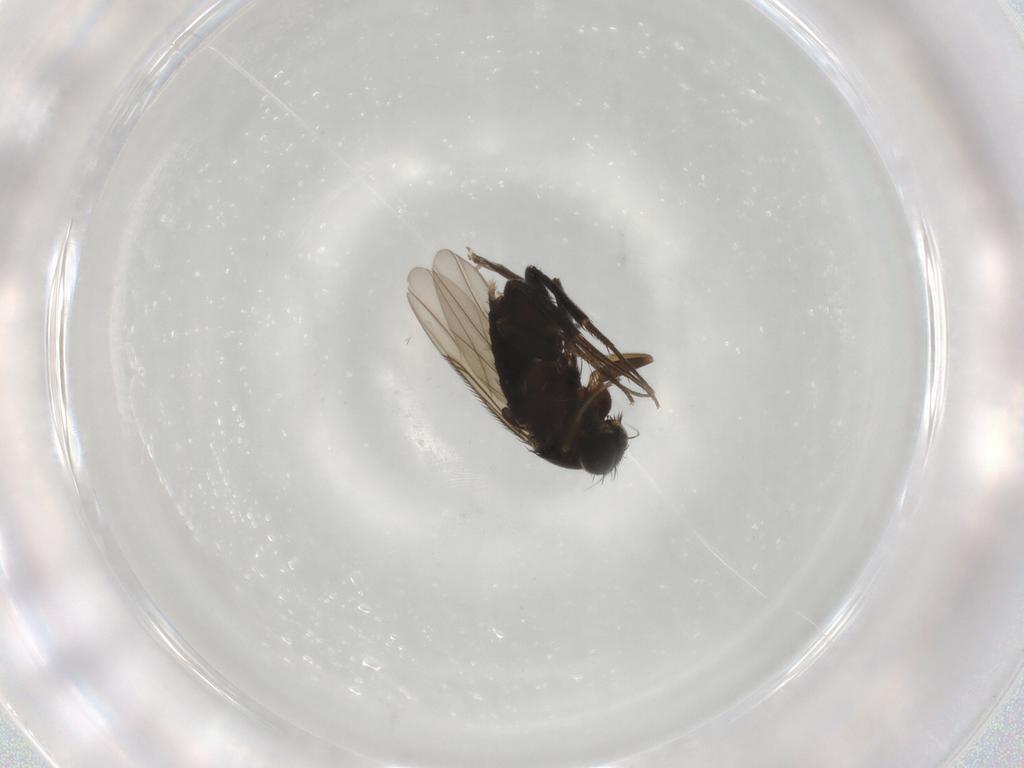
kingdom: Animalia
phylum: Arthropoda
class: Insecta
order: Diptera
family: Phoridae
